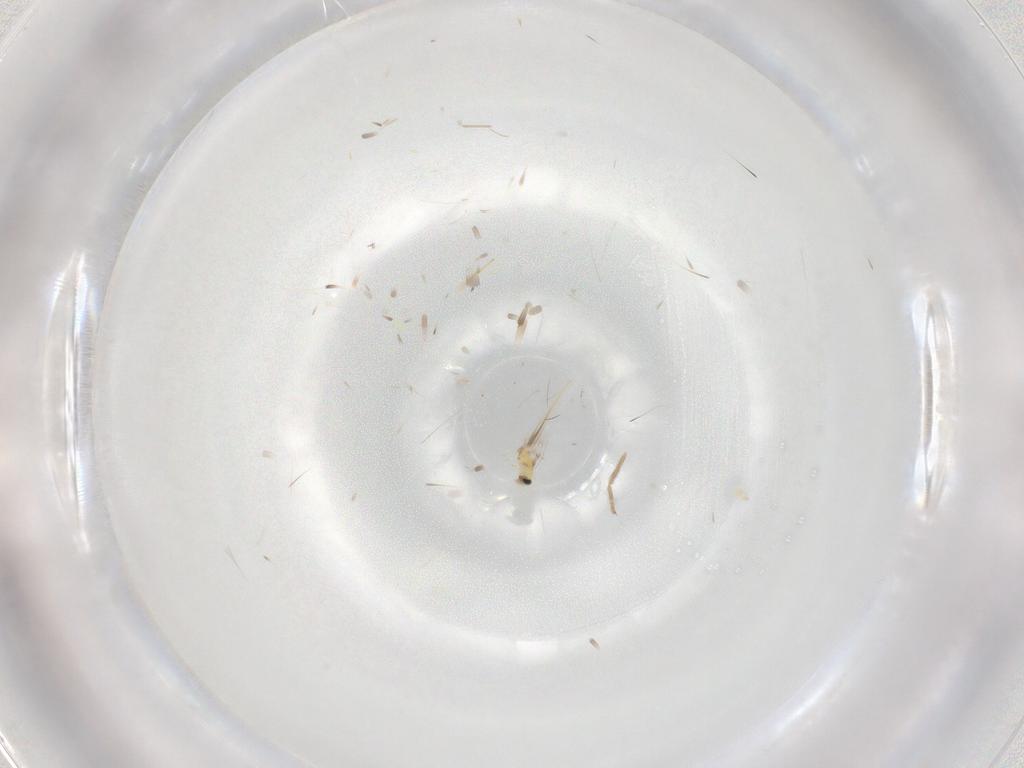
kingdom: Animalia
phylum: Arthropoda
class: Insecta
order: Hymenoptera
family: Trichogrammatidae
